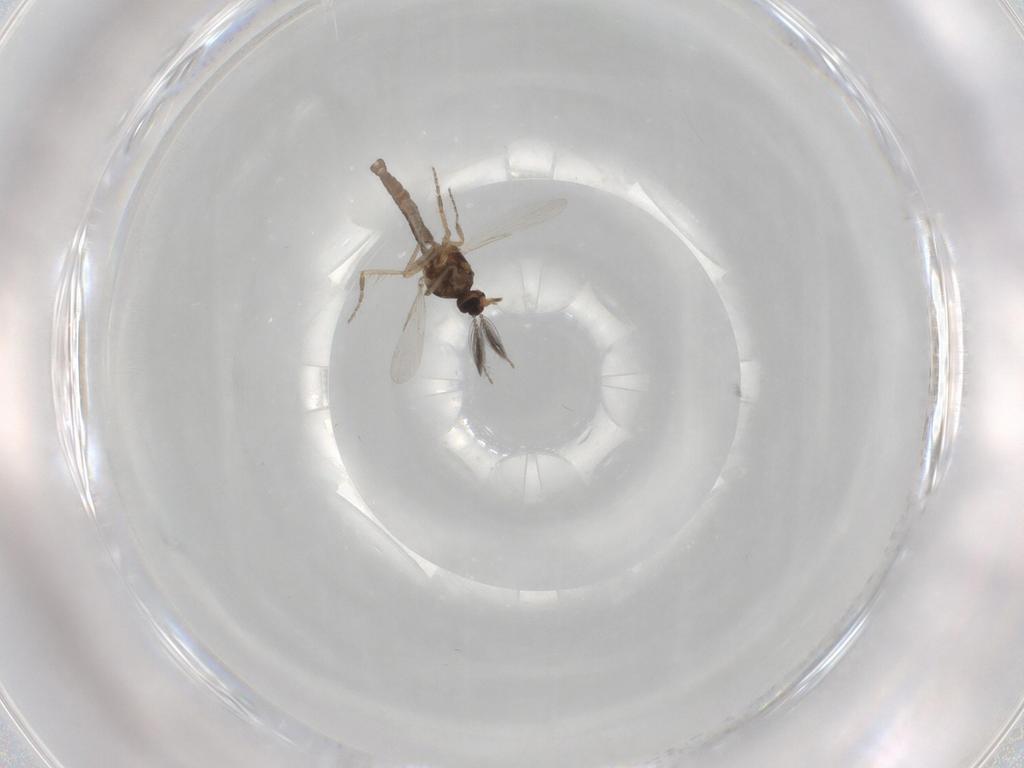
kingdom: Animalia
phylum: Arthropoda
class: Insecta
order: Diptera
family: Ceratopogonidae
